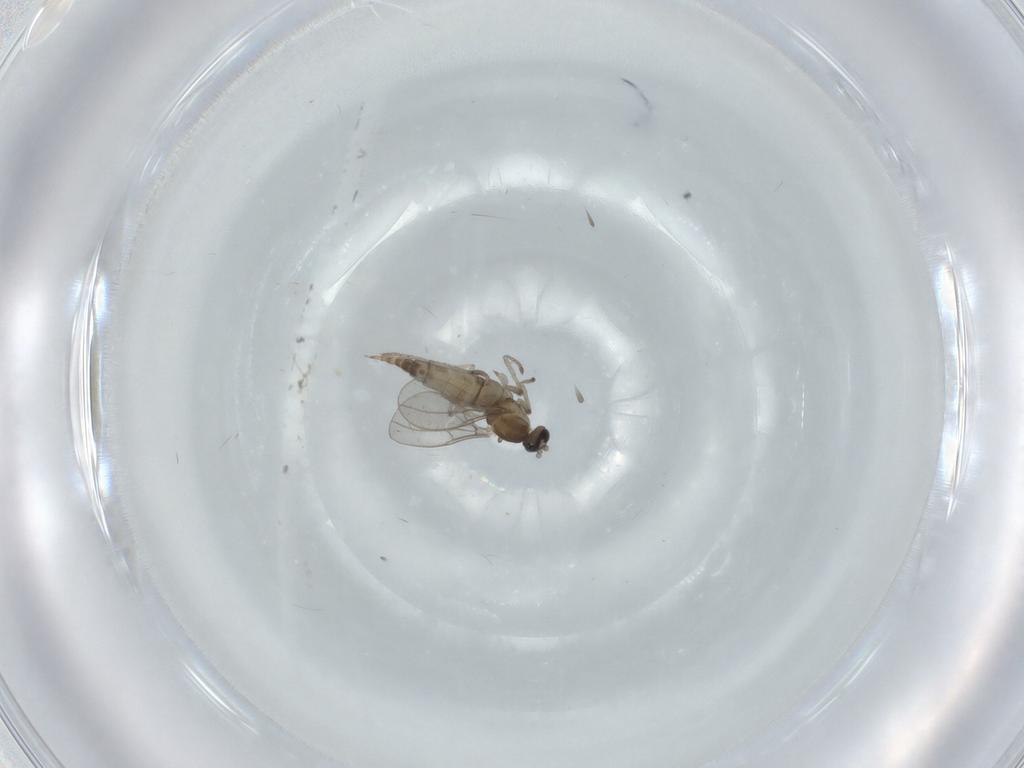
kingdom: Animalia
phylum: Arthropoda
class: Insecta
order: Diptera
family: Cecidomyiidae
